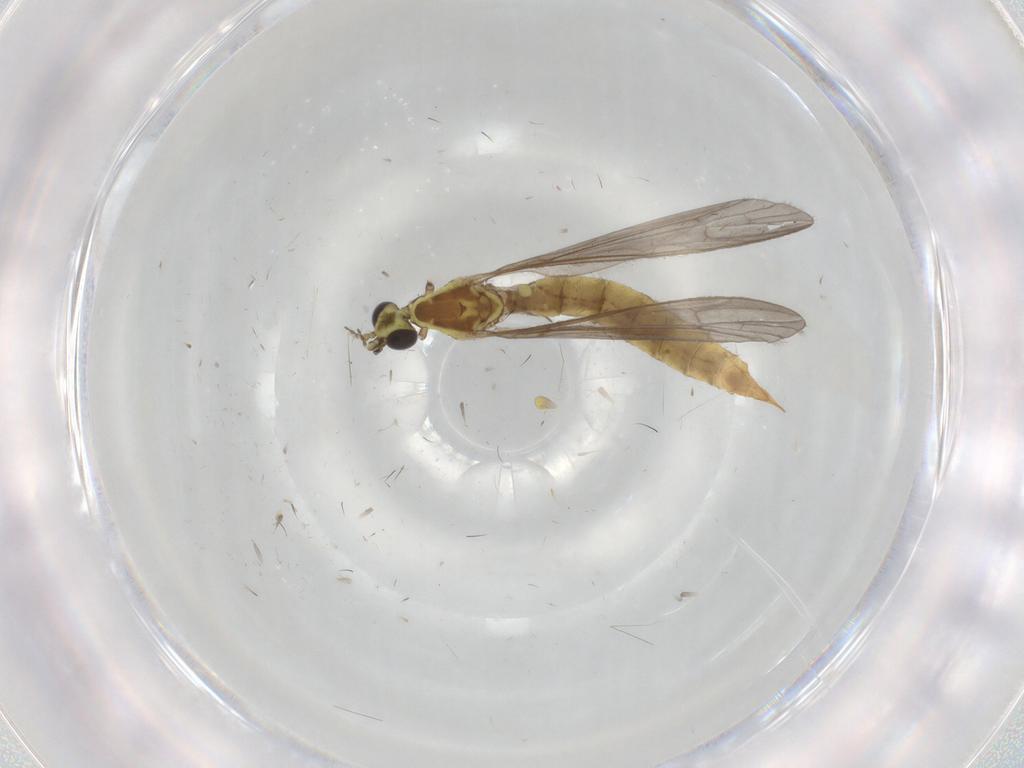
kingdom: Animalia
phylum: Arthropoda
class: Insecta
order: Diptera
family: Limoniidae
